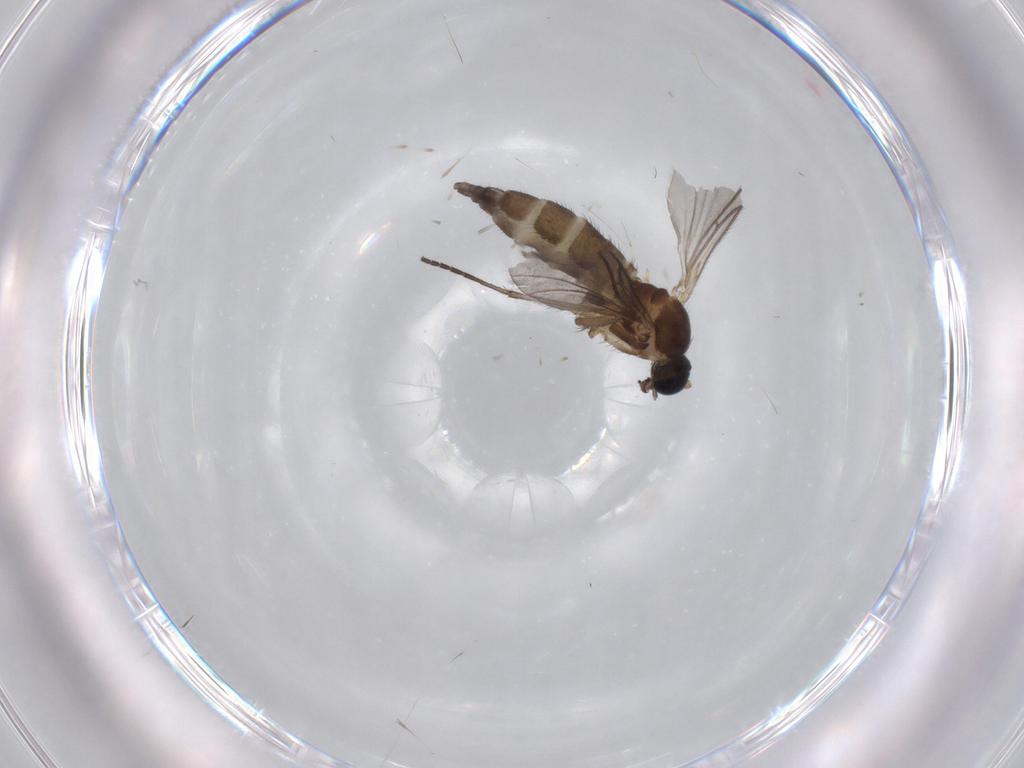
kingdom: Animalia
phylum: Arthropoda
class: Insecta
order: Diptera
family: Sciaridae
